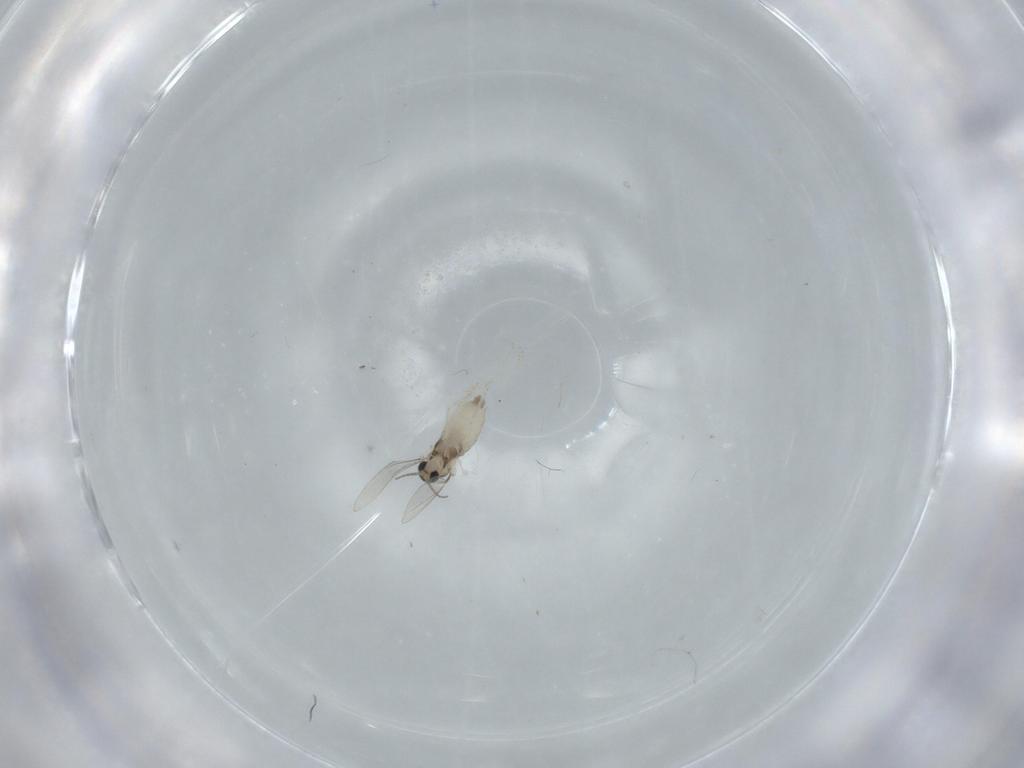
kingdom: Animalia
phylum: Arthropoda
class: Insecta
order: Diptera
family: Cecidomyiidae
